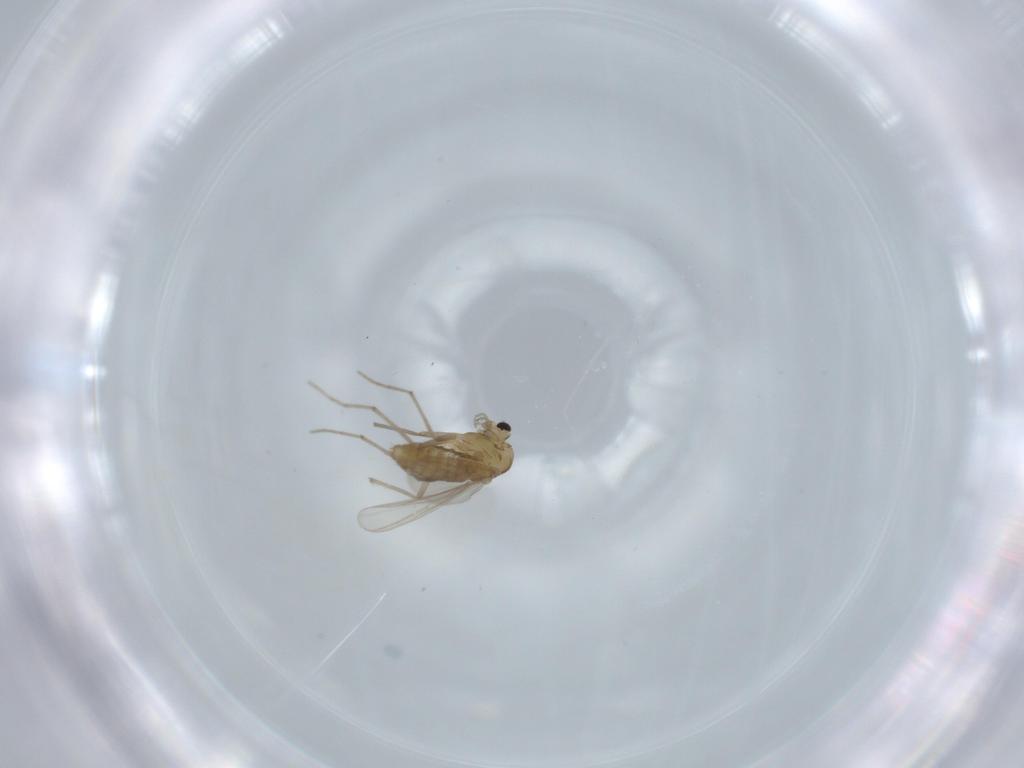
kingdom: Animalia
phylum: Arthropoda
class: Insecta
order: Diptera
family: Chironomidae
